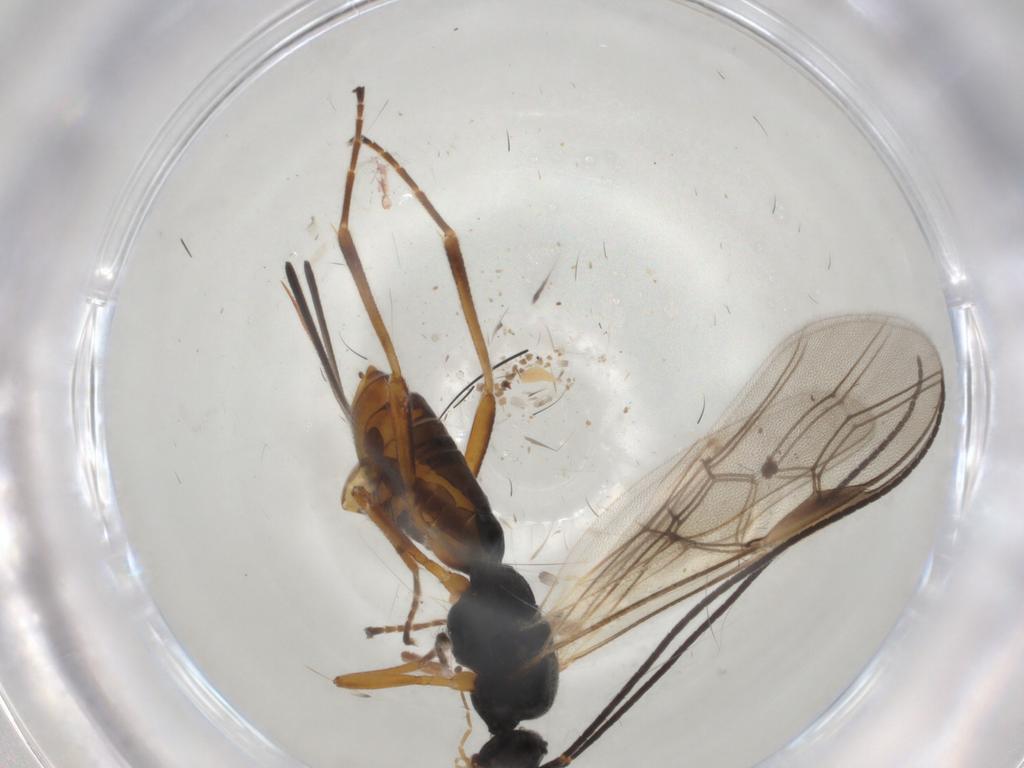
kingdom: Animalia
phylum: Arthropoda
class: Insecta
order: Hymenoptera
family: Braconidae
